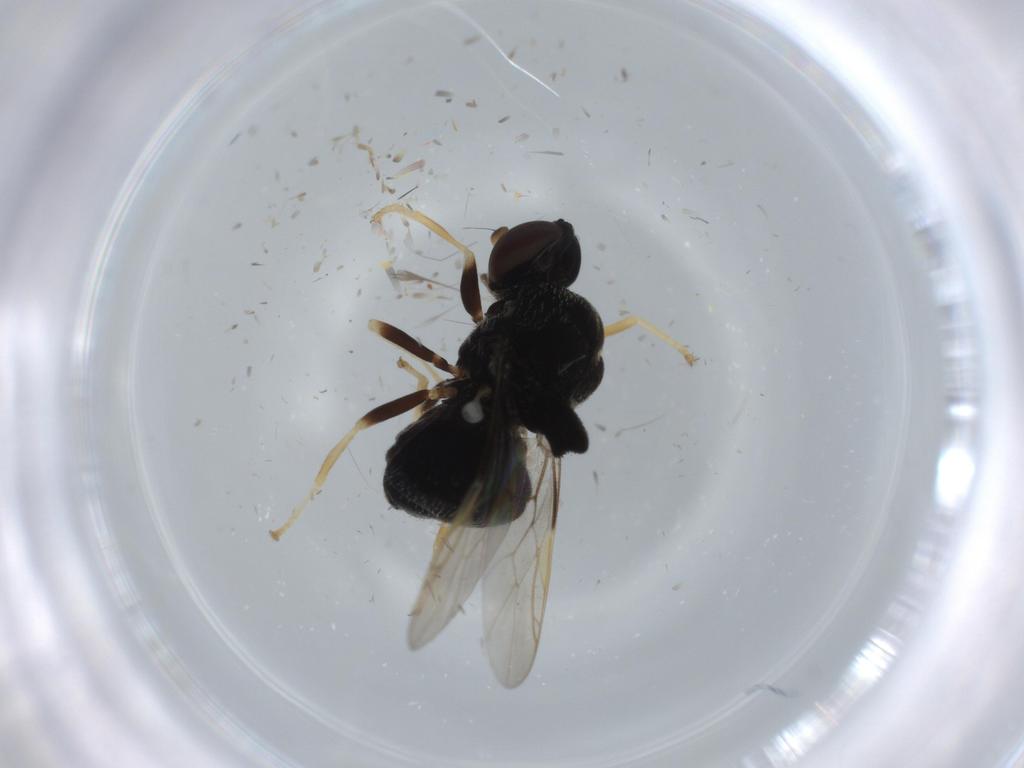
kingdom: Animalia
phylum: Arthropoda
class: Insecta
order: Diptera
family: Stratiomyidae
